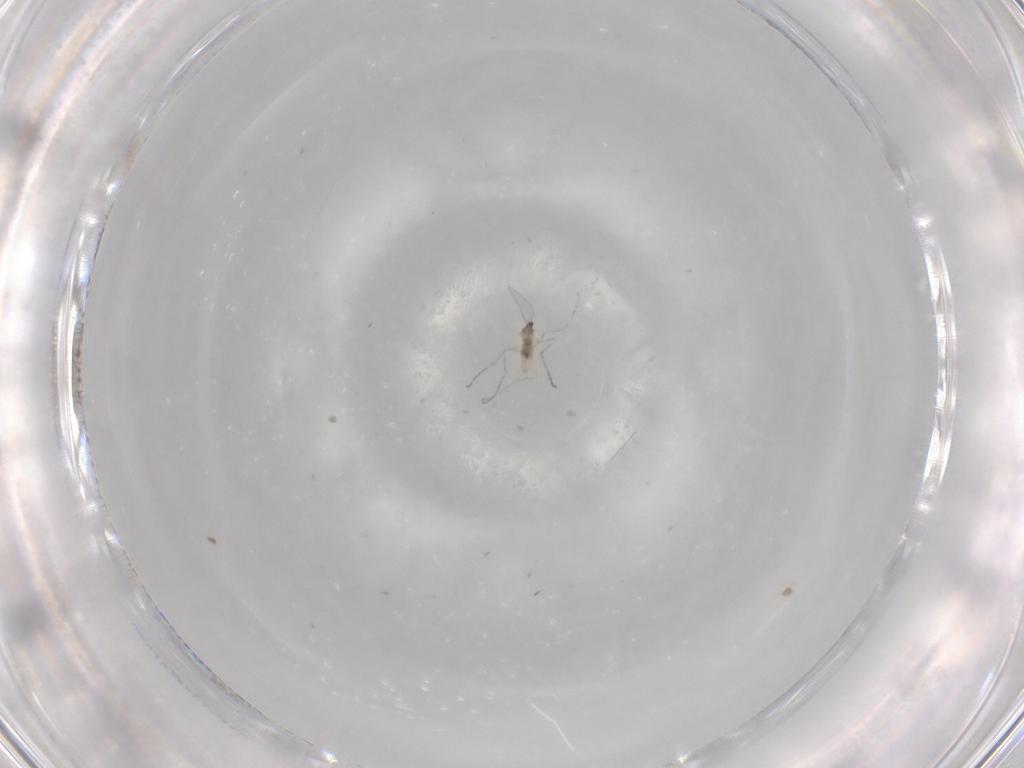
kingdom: Animalia
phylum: Arthropoda
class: Insecta
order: Diptera
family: Cecidomyiidae
